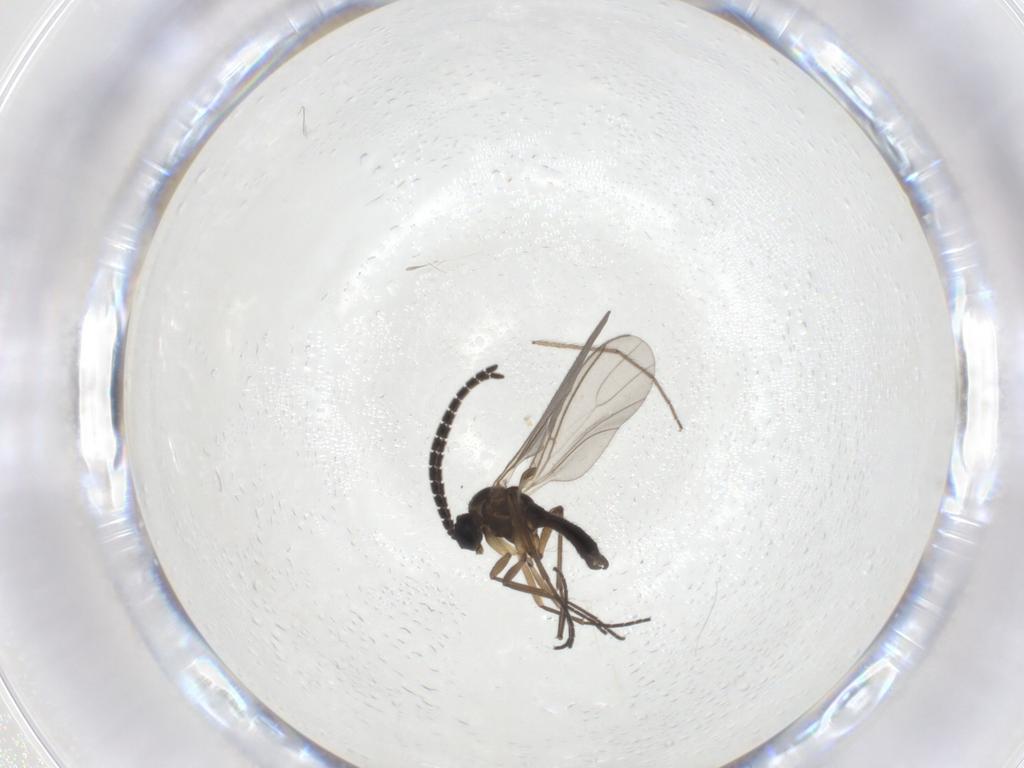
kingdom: Animalia
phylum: Arthropoda
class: Insecta
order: Diptera
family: Sciaridae
